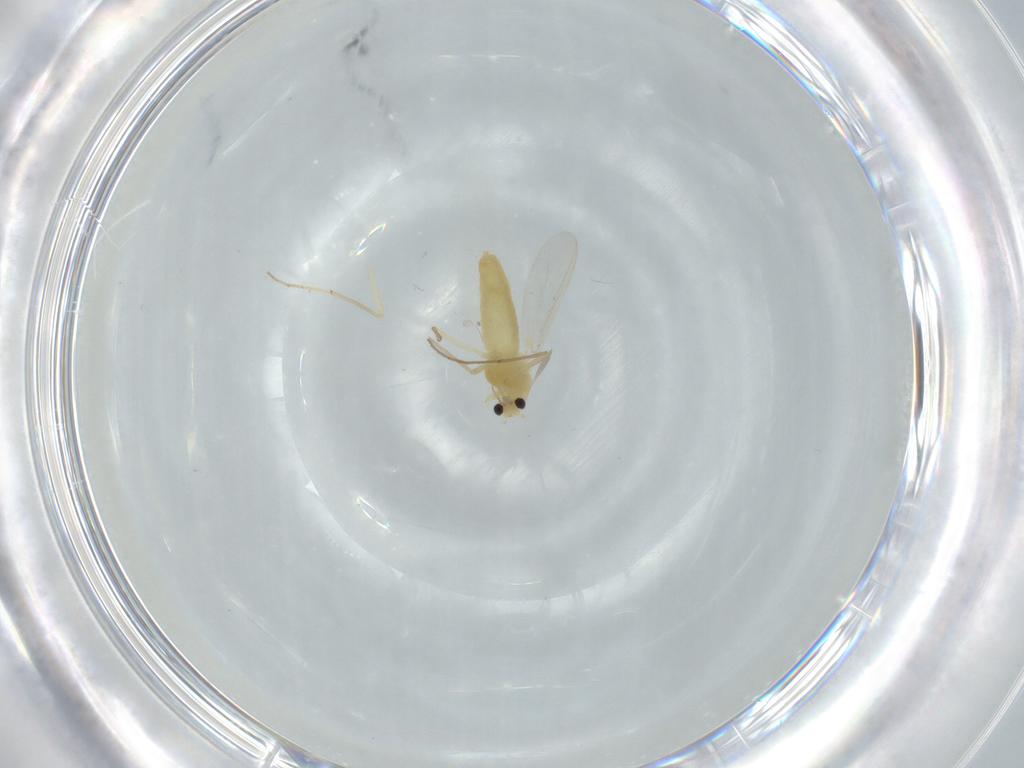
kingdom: Animalia
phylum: Arthropoda
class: Insecta
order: Diptera
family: Chironomidae
